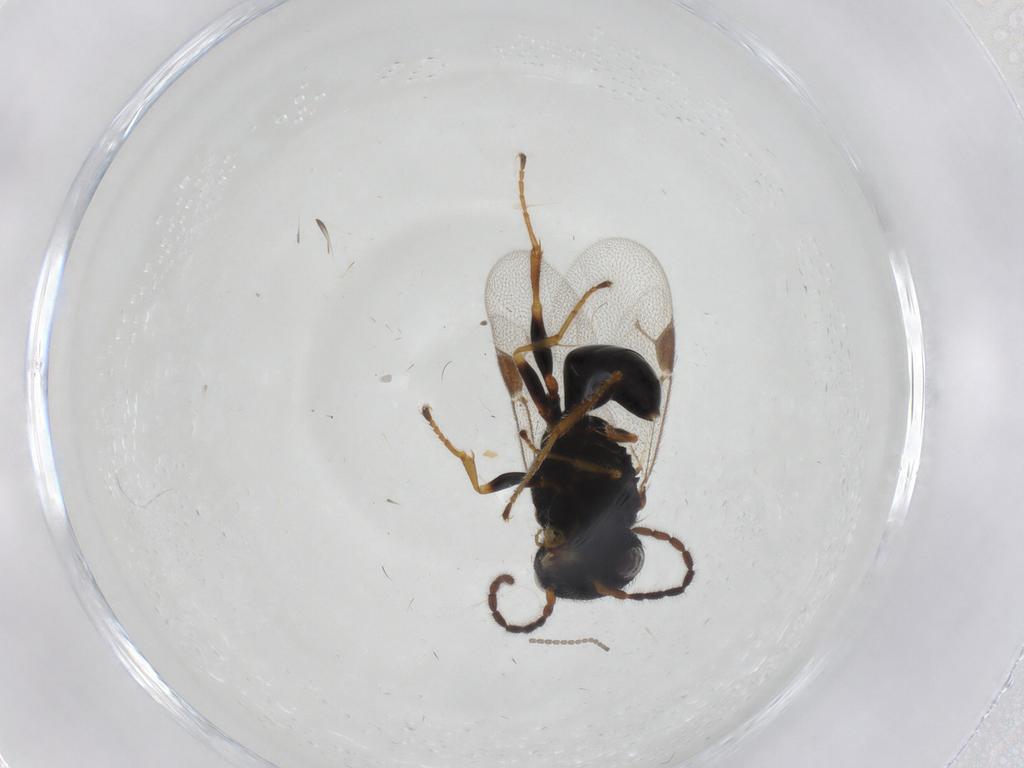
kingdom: Animalia
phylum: Arthropoda
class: Insecta
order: Hymenoptera
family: Dryinidae
